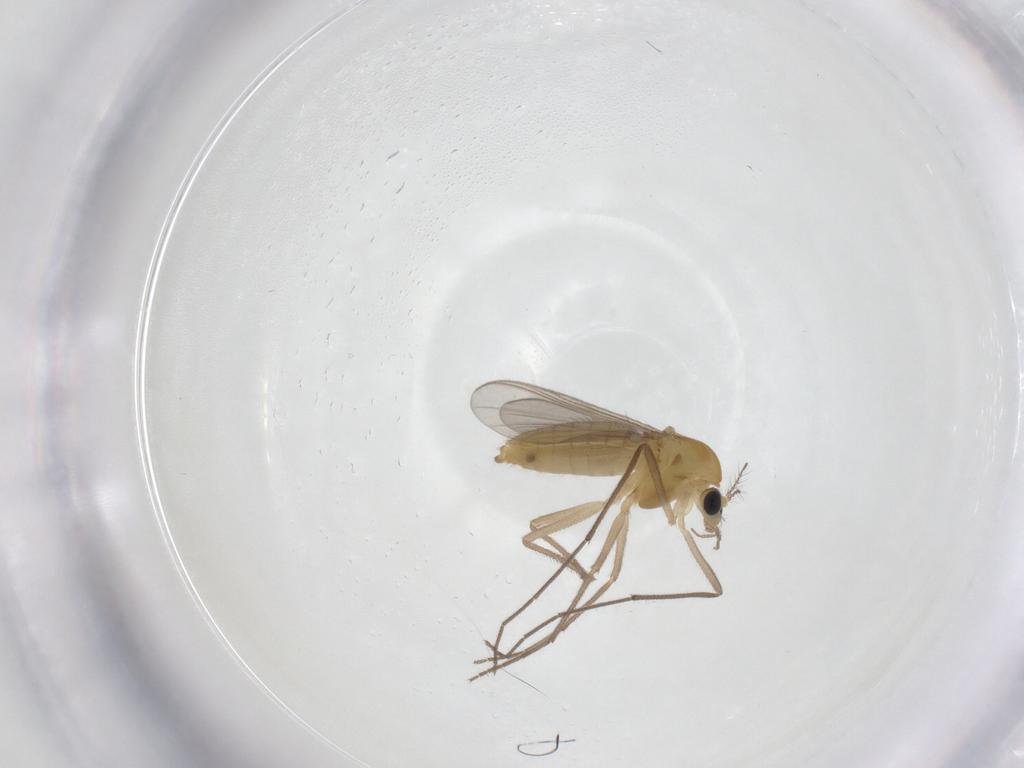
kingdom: Animalia
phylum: Arthropoda
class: Insecta
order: Diptera
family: Chironomidae
